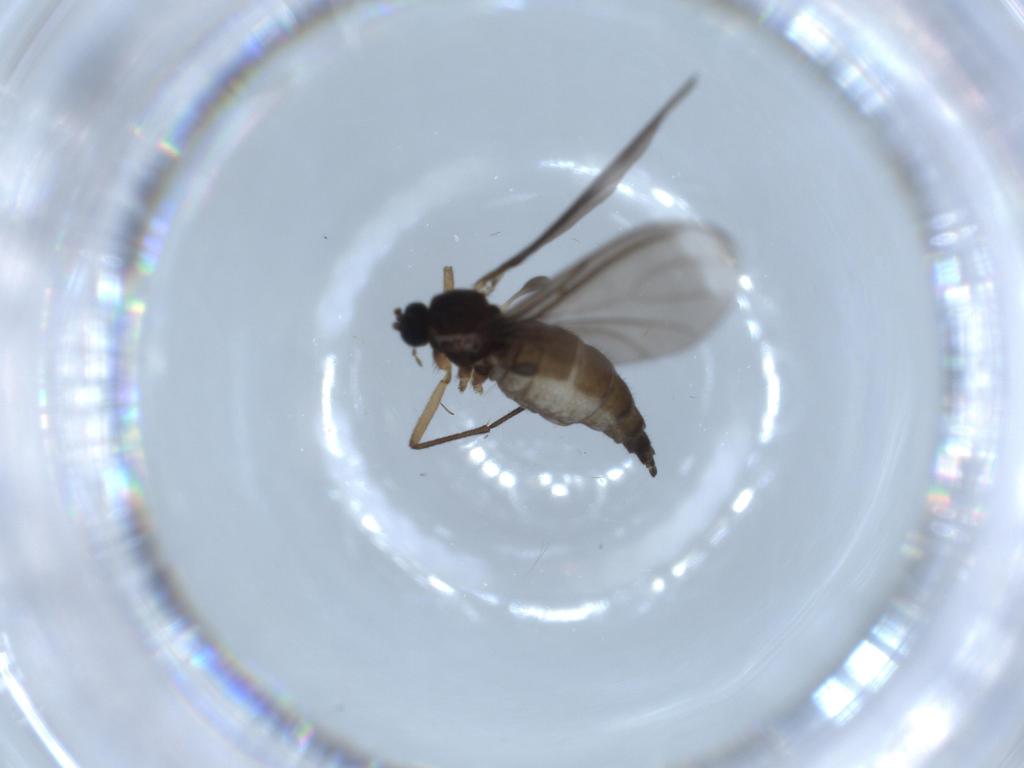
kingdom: Animalia
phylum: Arthropoda
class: Insecta
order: Diptera
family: Sciaridae
